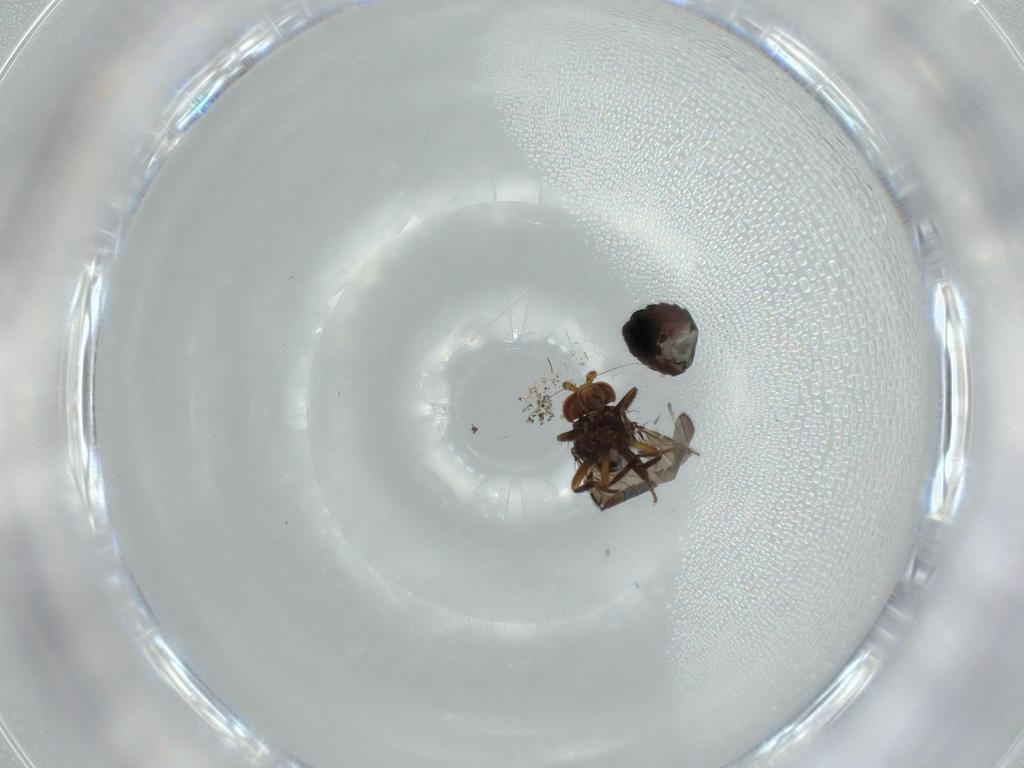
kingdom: Animalia
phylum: Arthropoda
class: Insecta
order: Diptera
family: Sphaeroceridae
